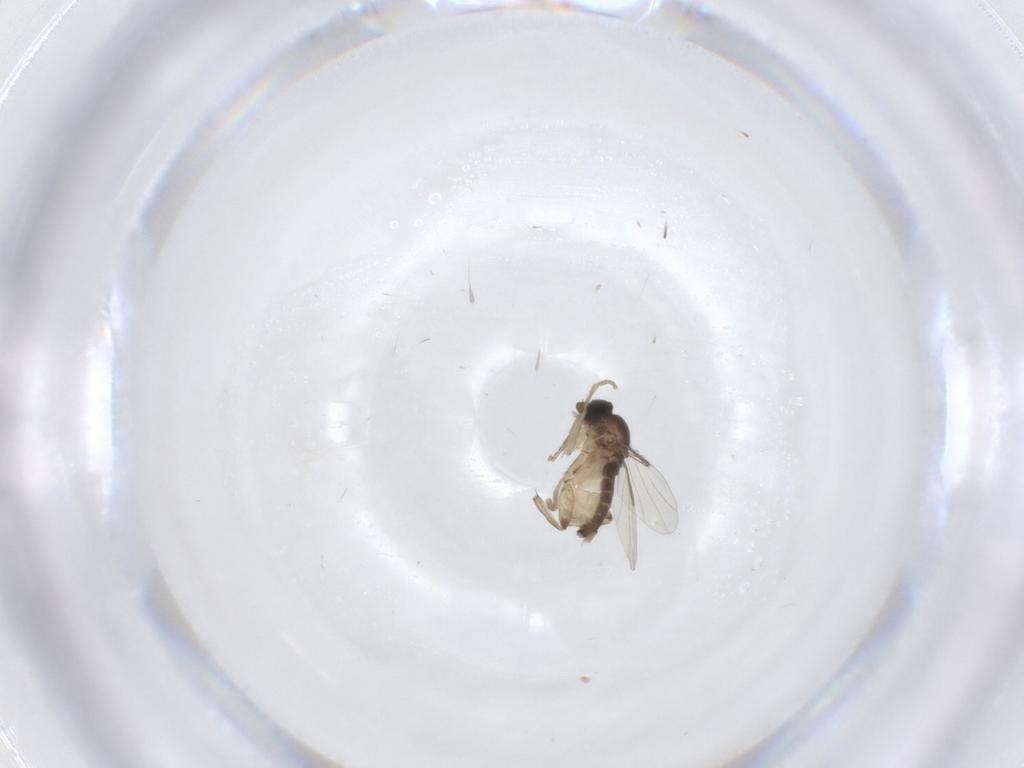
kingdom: Animalia
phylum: Arthropoda
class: Insecta
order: Diptera
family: Phoridae
